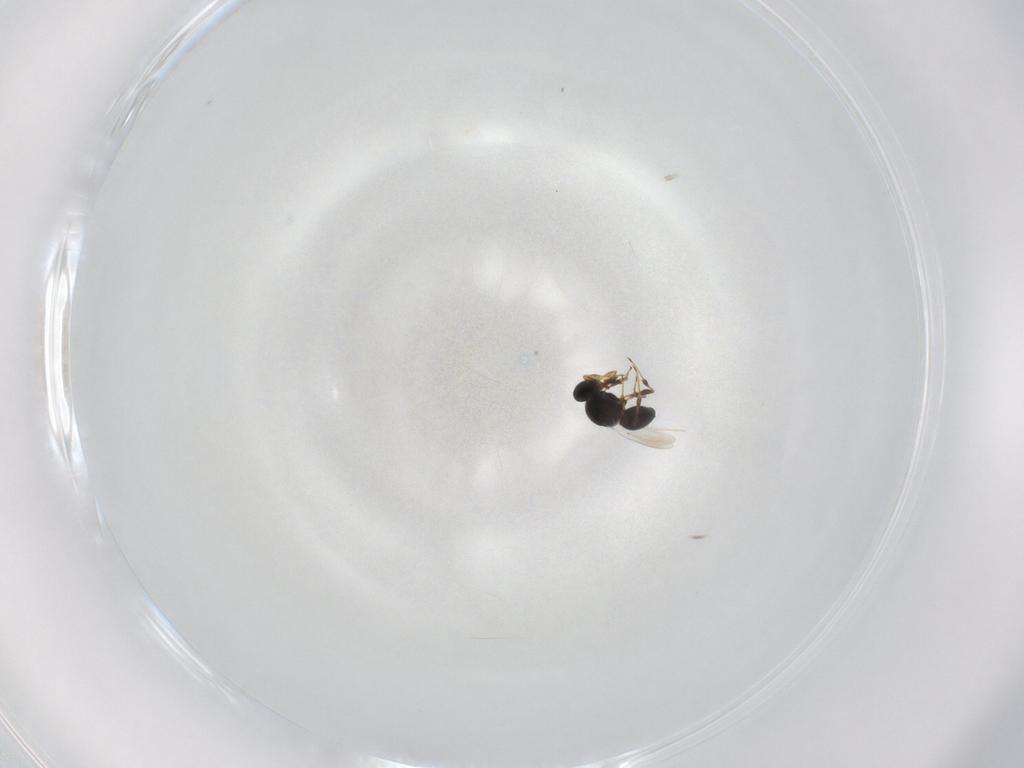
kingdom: Animalia
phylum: Arthropoda
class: Insecta
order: Hymenoptera
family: Platygastridae
